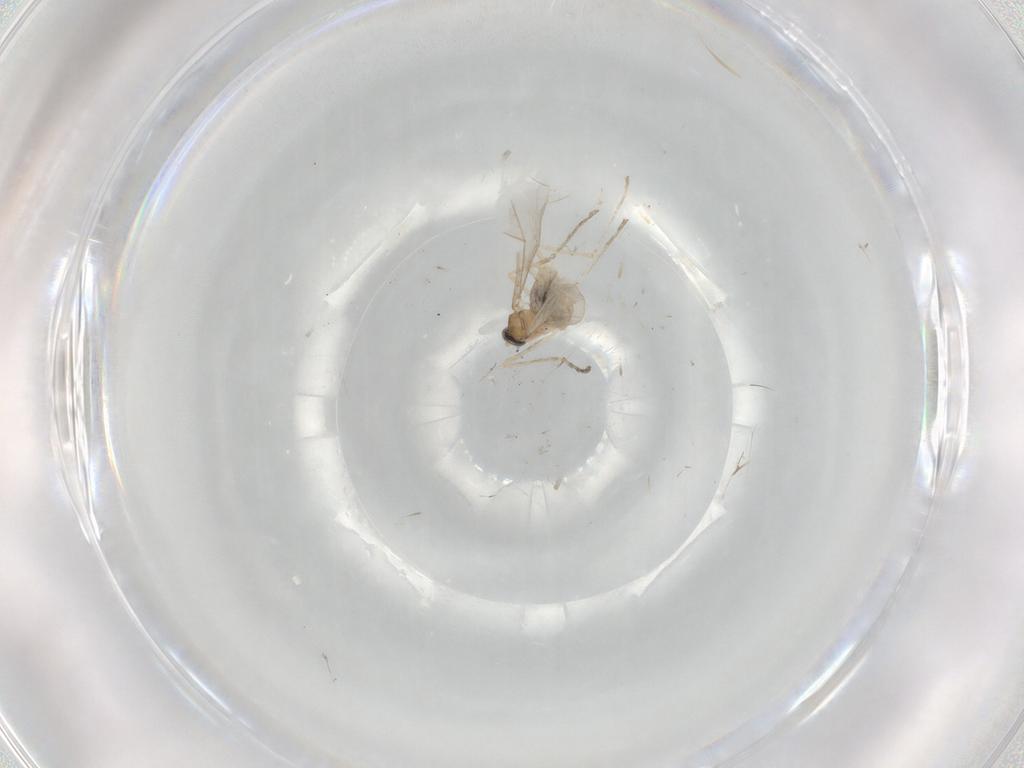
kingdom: Animalia
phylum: Arthropoda
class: Insecta
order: Diptera
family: Cecidomyiidae
